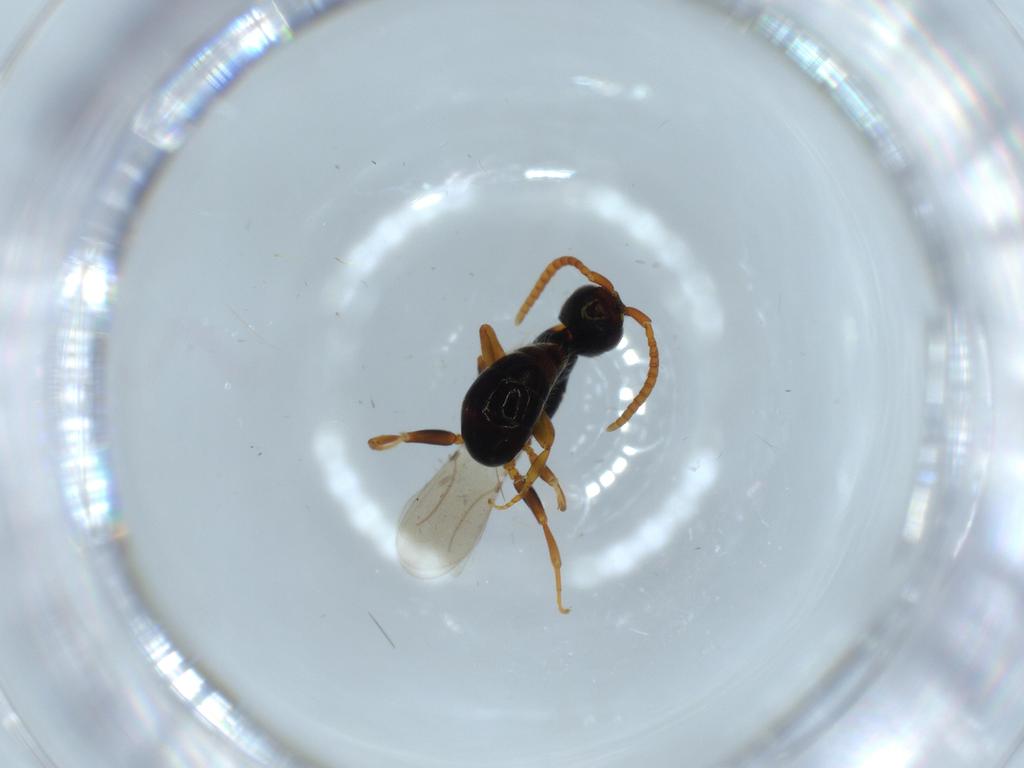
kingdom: Animalia
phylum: Arthropoda
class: Insecta
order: Hymenoptera
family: Bethylidae
